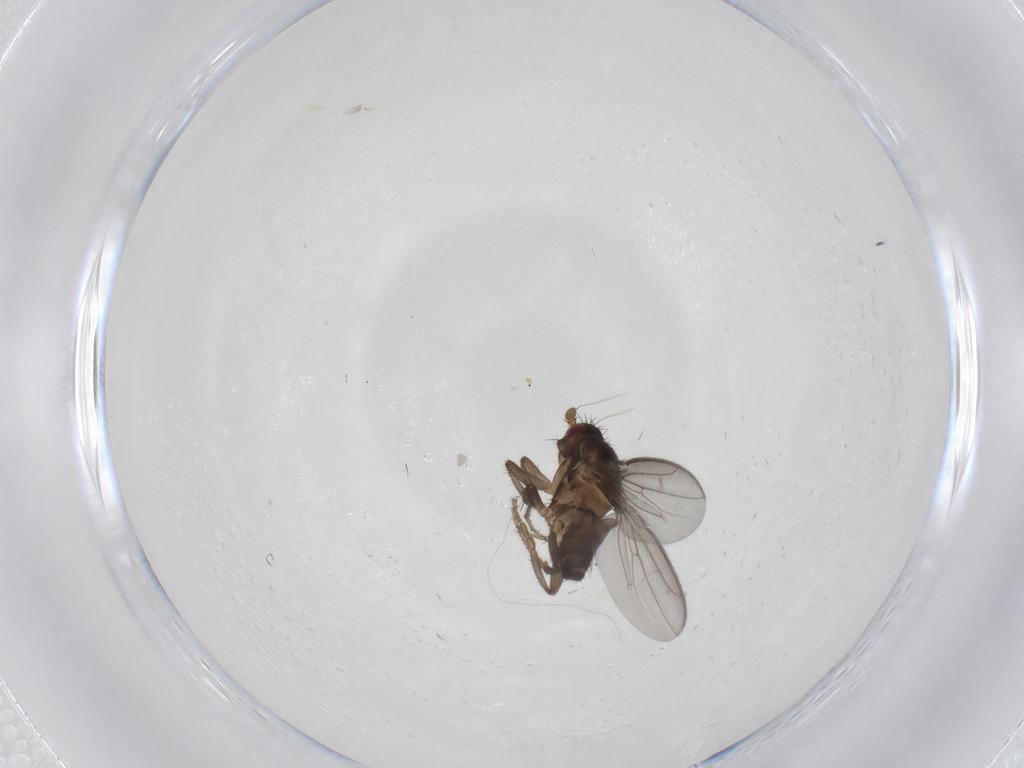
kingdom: Animalia
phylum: Arthropoda
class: Insecta
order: Diptera
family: Sphaeroceridae
